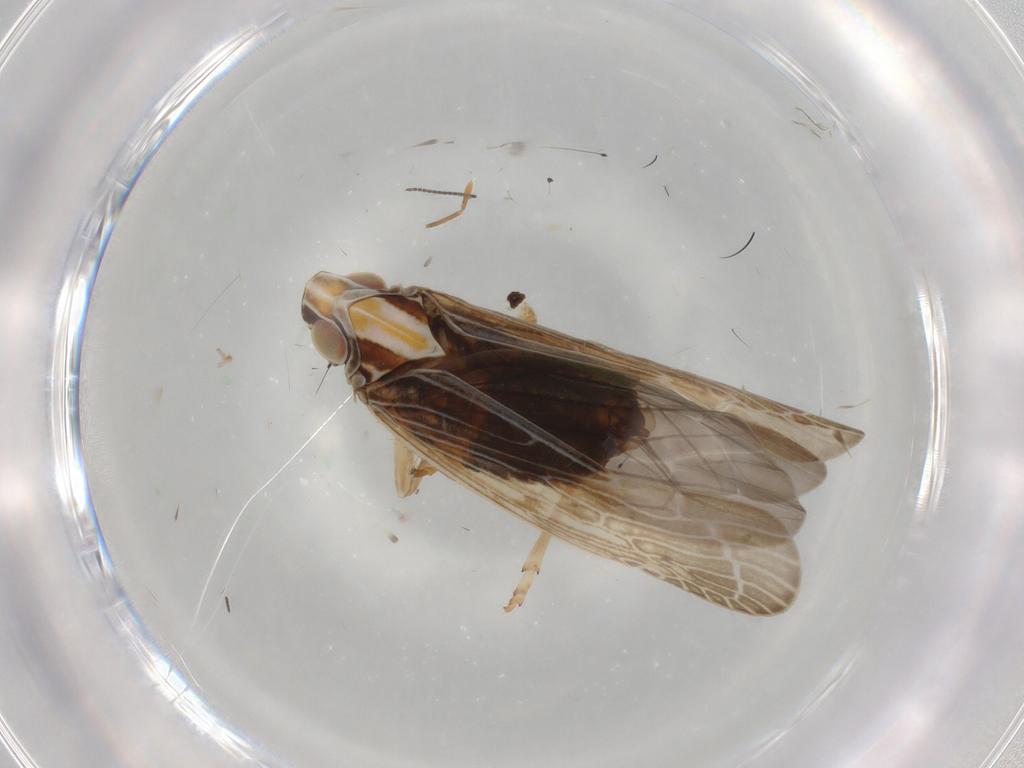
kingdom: Animalia
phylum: Arthropoda
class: Insecta
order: Hemiptera
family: Achilidae
